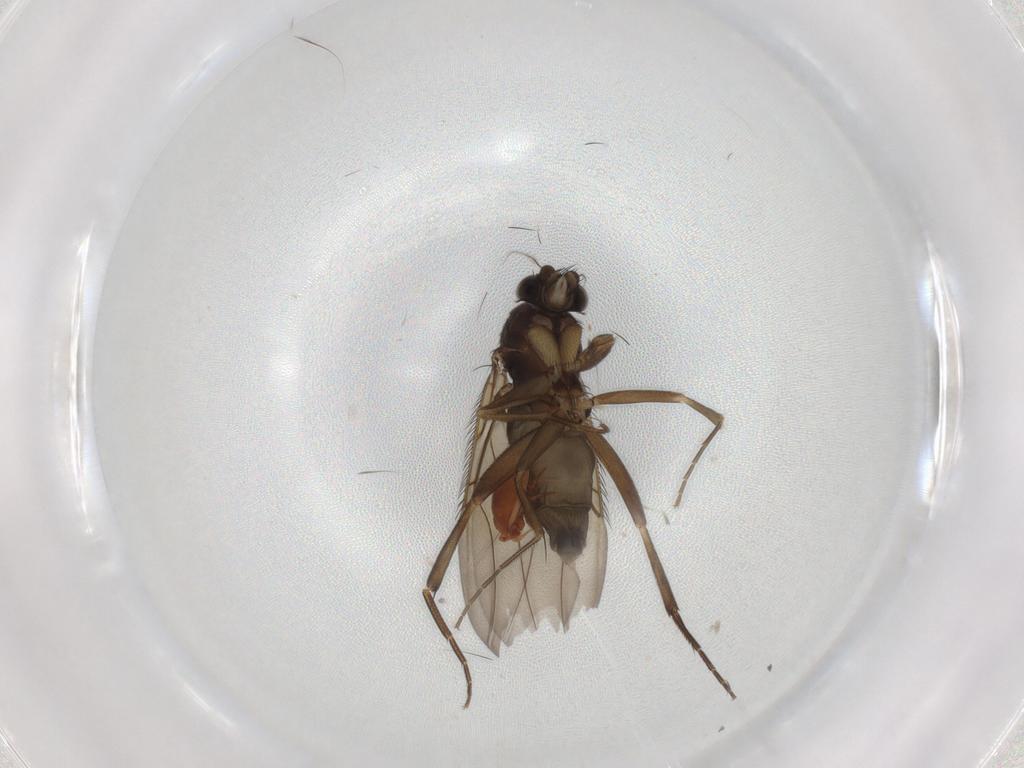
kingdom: Animalia
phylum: Arthropoda
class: Insecta
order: Diptera
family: Phoridae
